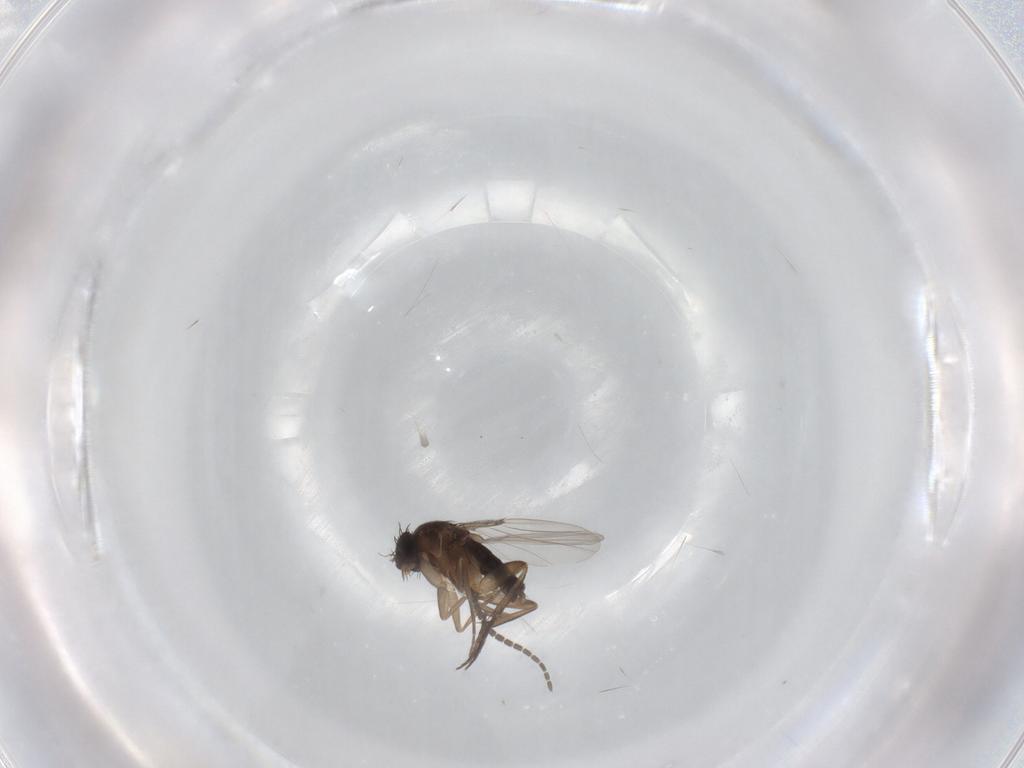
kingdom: Animalia
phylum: Arthropoda
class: Insecta
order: Diptera
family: Phoridae
